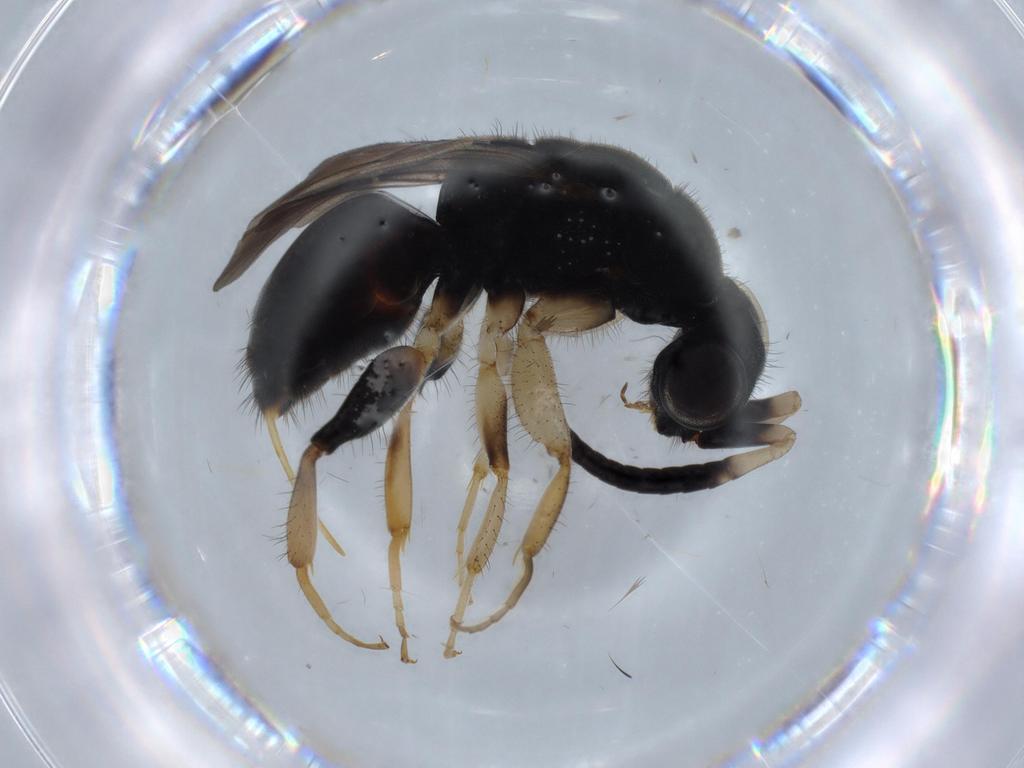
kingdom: Animalia
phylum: Arthropoda
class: Insecta
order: Hymenoptera
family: Chrysididae
